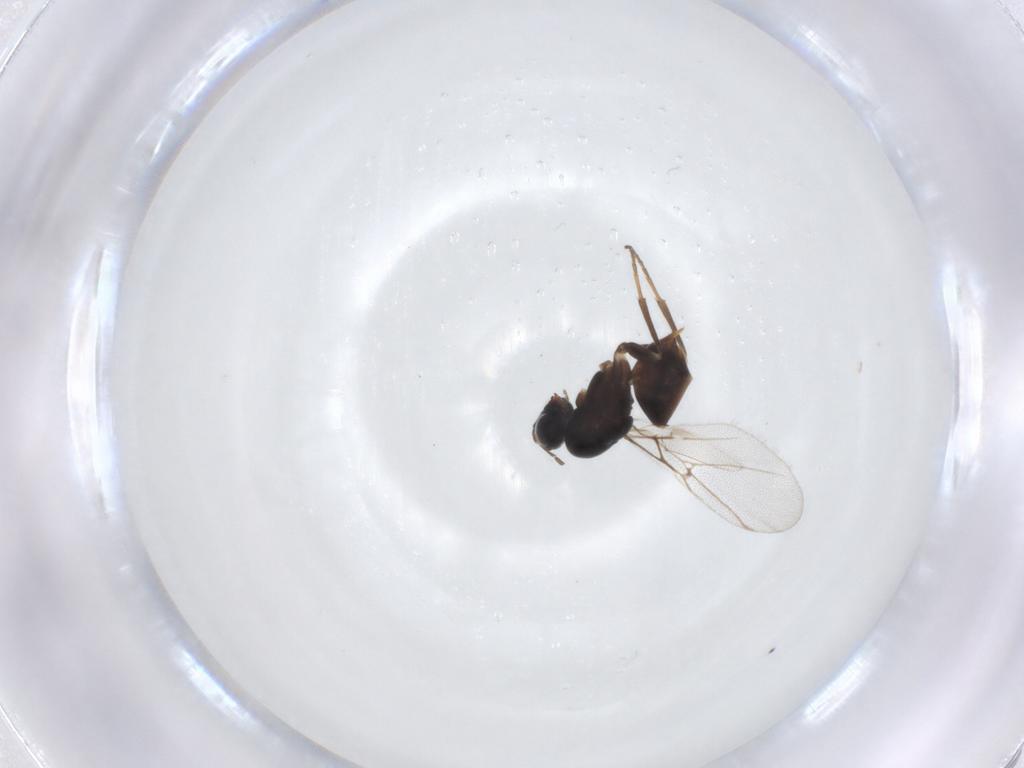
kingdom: Animalia
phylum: Arthropoda
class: Insecta
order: Hymenoptera
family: Cynipidae
